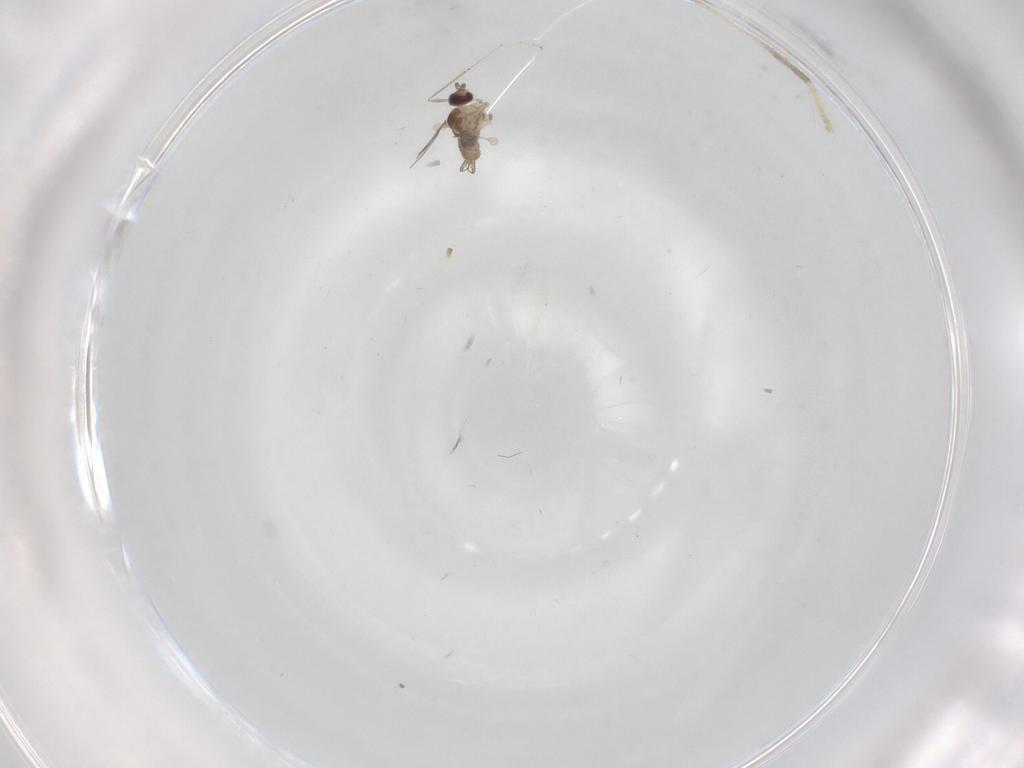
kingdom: Animalia
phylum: Arthropoda
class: Insecta
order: Diptera
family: Chironomidae
